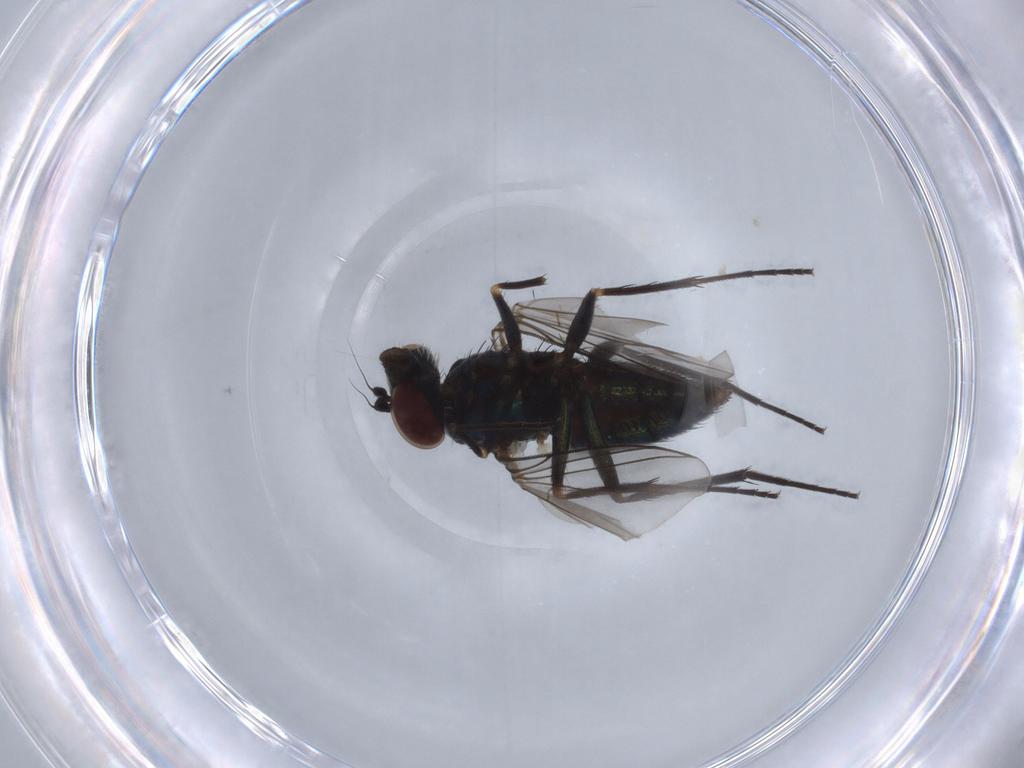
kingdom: Animalia
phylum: Arthropoda
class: Insecta
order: Diptera
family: Dolichopodidae
